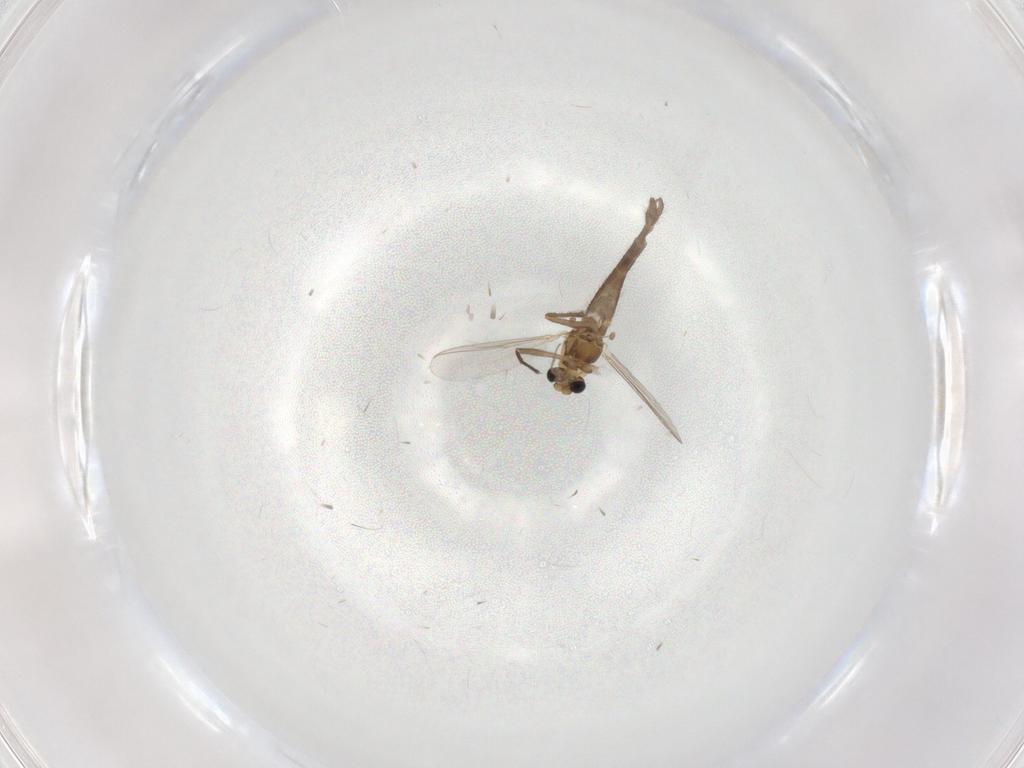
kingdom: Animalia
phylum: Arthropoda
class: Insecta
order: Diptera
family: Chironomidae
